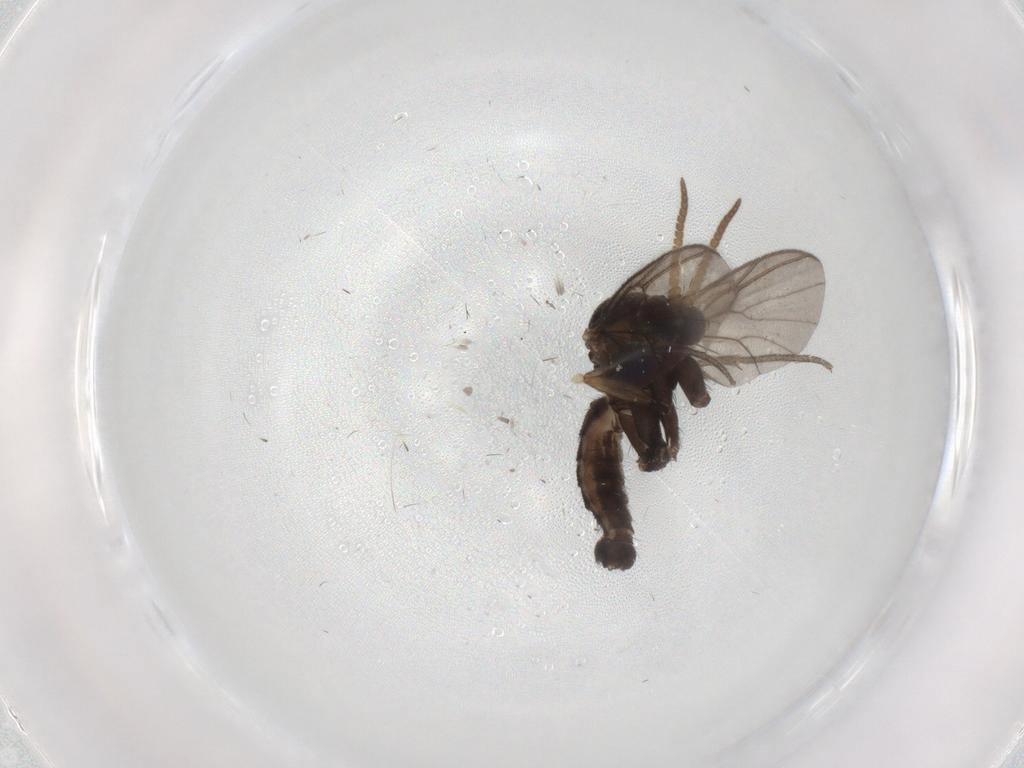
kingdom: Animalia
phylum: Arthropoda
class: Insecta
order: Diptera
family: Mycetophilidae
